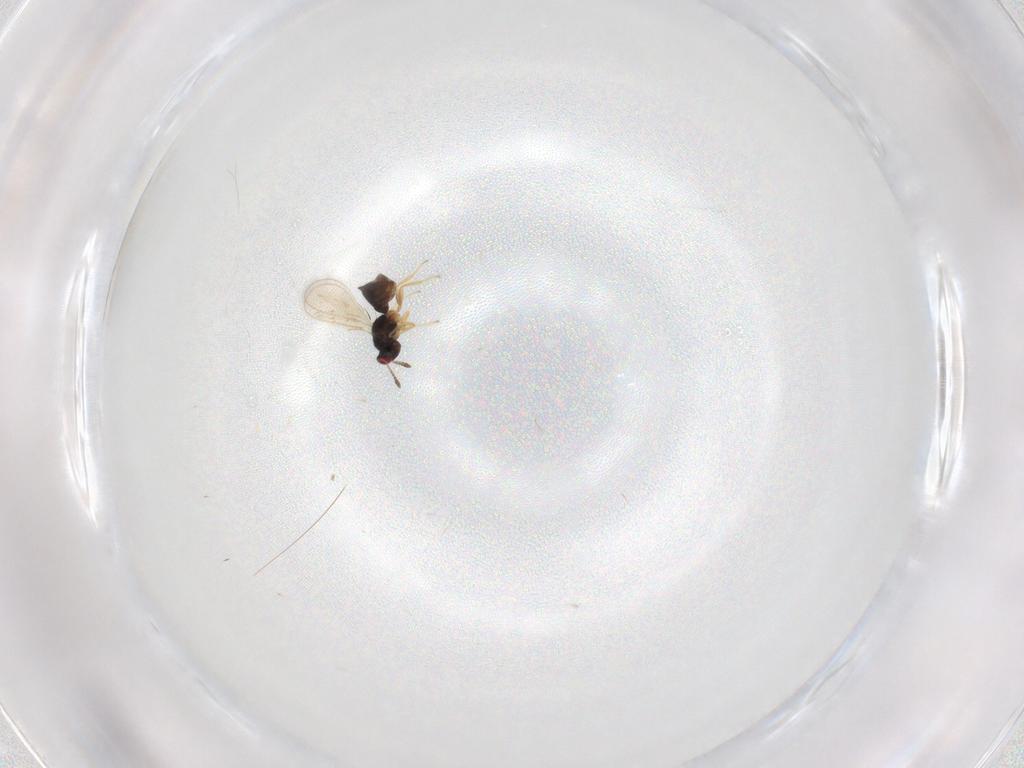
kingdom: Animalia
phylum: Arthropoda
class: Insecta
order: Hymenoptera
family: Tetracampidae
